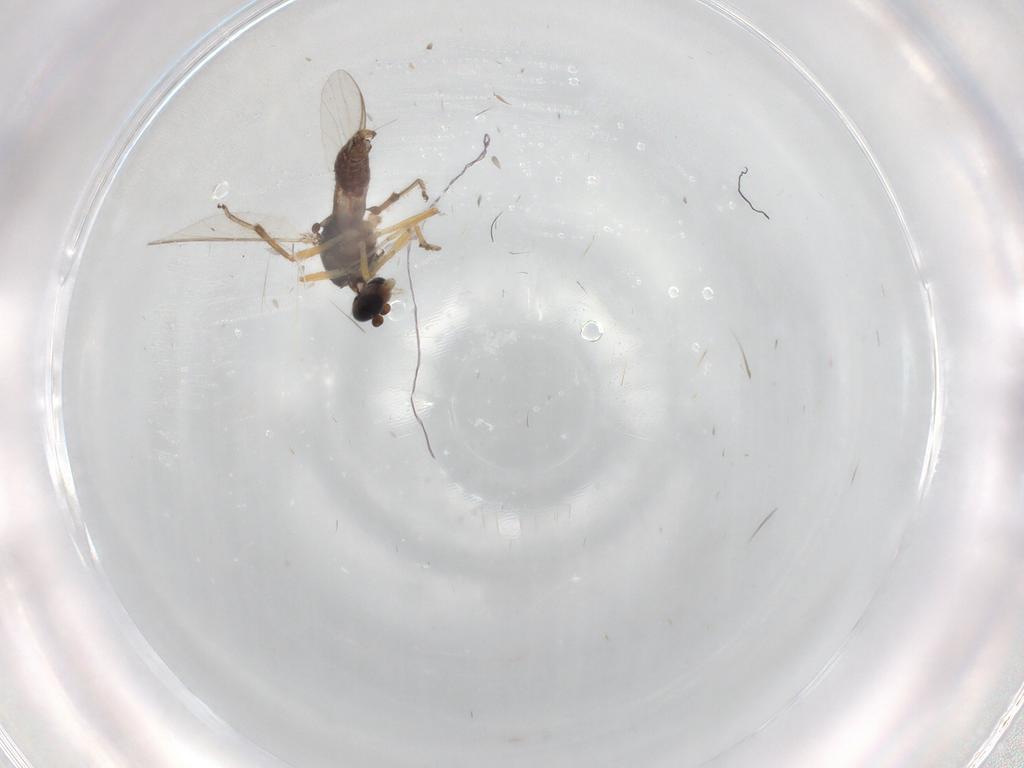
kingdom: Animalia
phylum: Arthropoda
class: Insecta
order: Diptera
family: Ceratopogonidae
